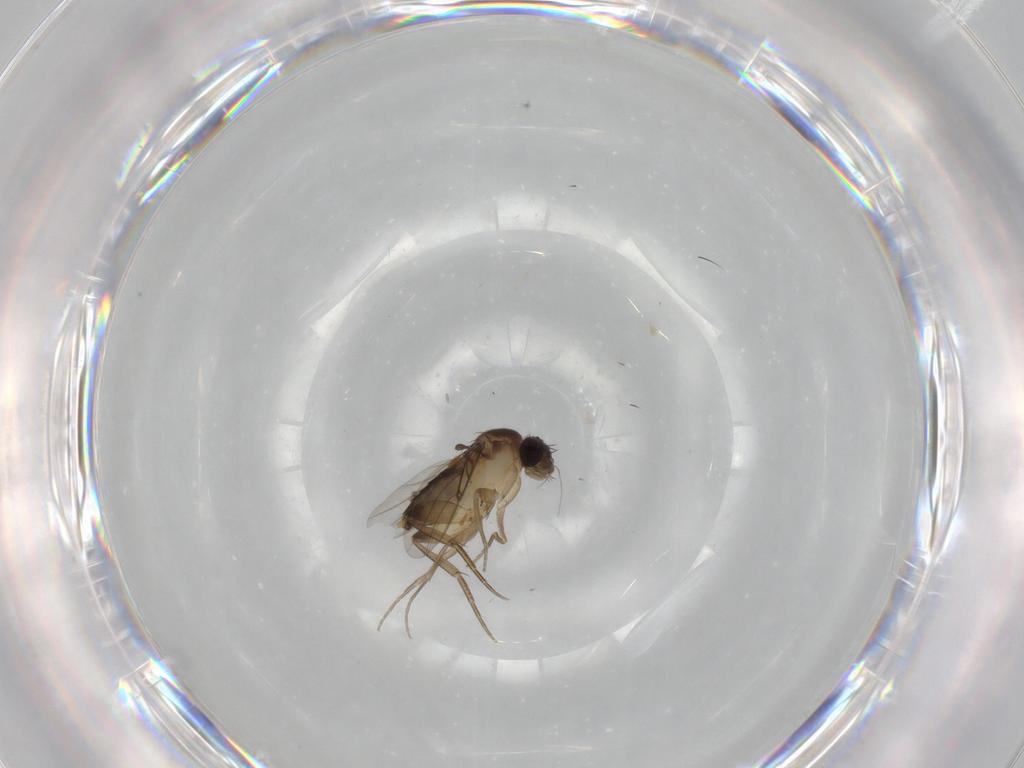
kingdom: Animalia
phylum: Arthropoda
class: Insecta
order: Diptera
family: Phoridae
